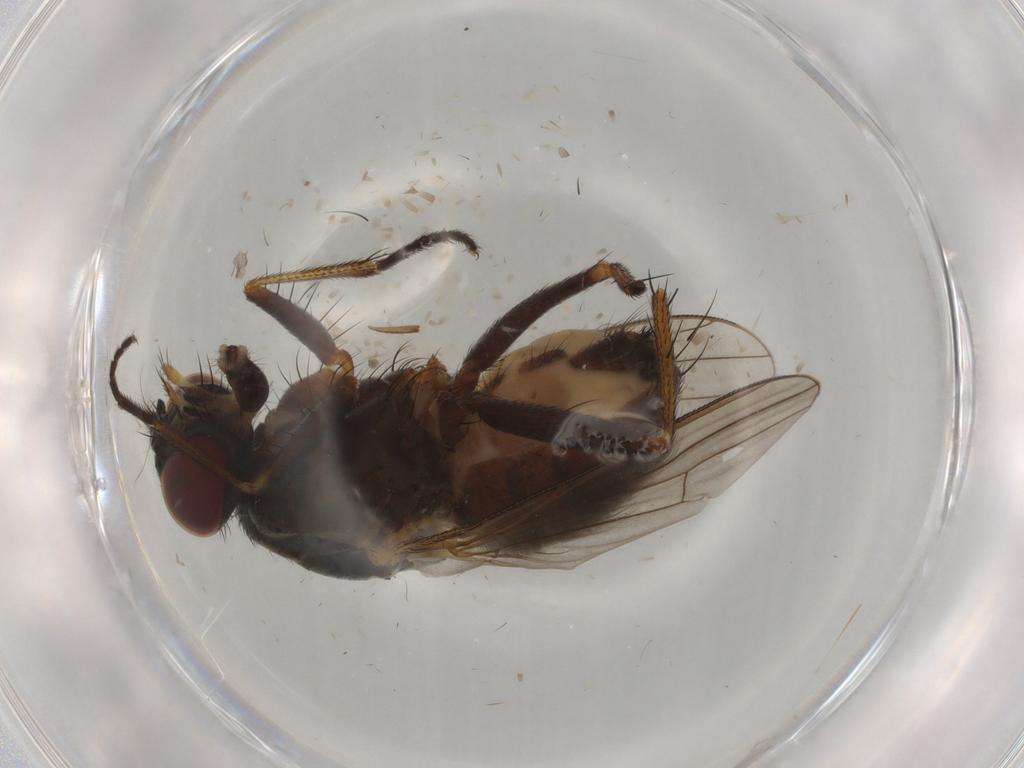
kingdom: Animalia
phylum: Arthropoda
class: Insecta
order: Diptera
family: Muscidae
